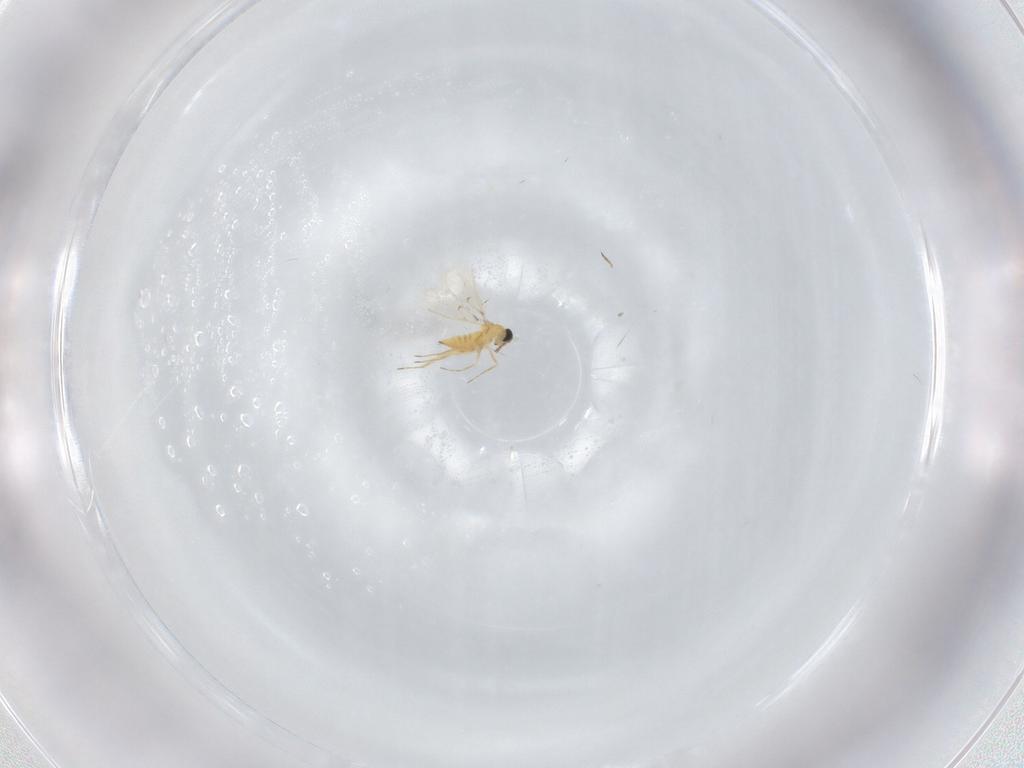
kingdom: Animalia
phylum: Arthropoda
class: Insecta
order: Hymenoptera
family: Trichogrammatidae
